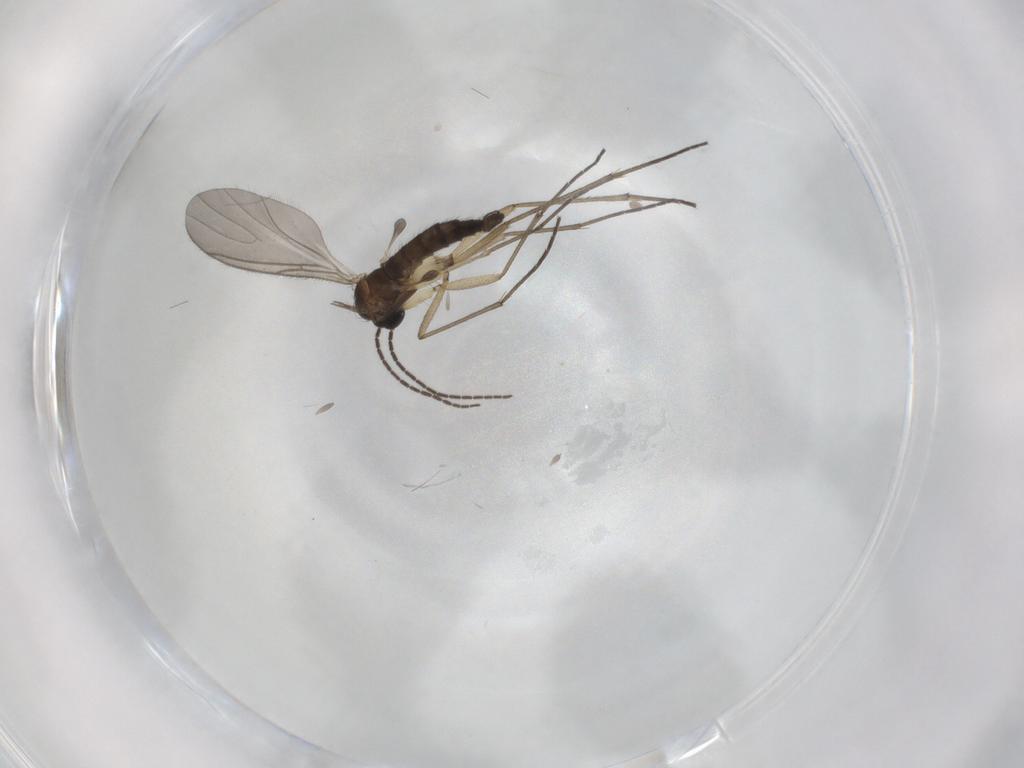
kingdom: Animalia
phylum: Arthropoda
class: Insecta
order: Diptera
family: Sciaridae
